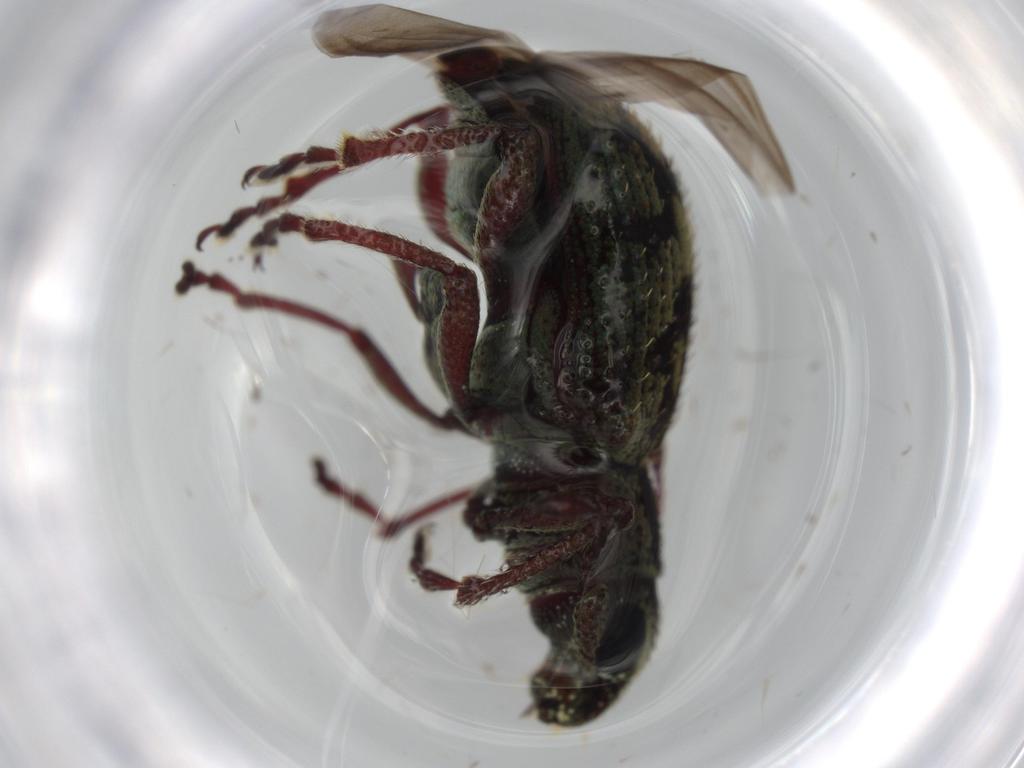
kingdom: Animalia
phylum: Arthropoda
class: Insecta
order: Coleoptera
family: Curculionidae
